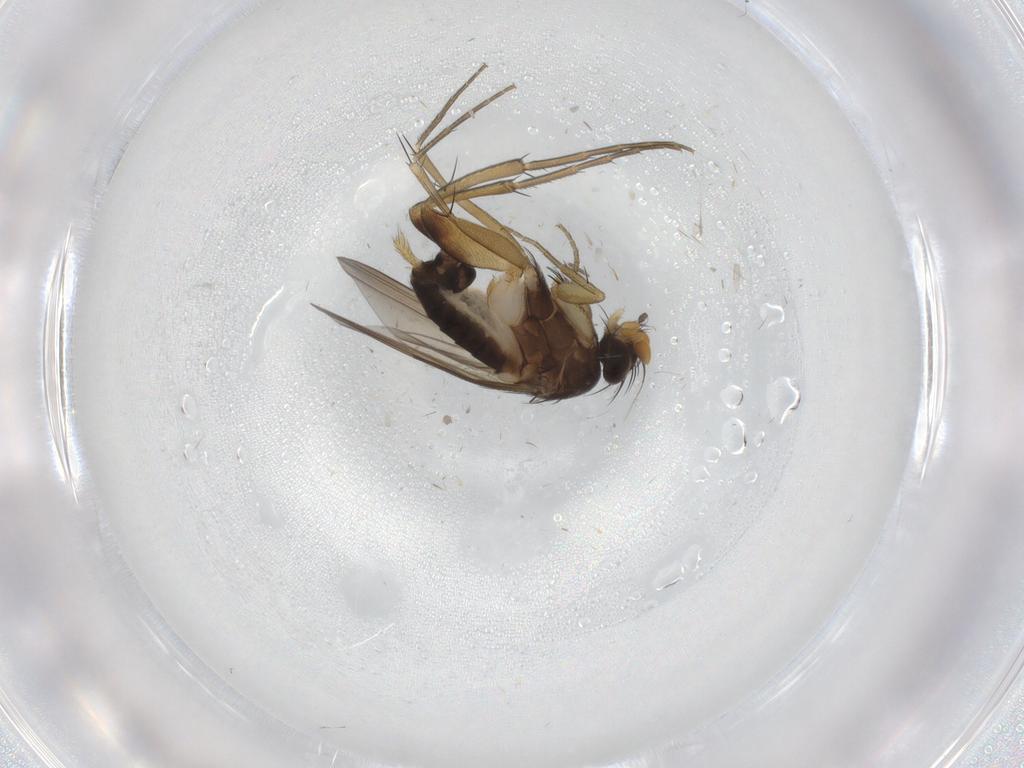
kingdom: Animalia
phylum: Arthropoda
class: Insecta
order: Diptera
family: Phoridae
